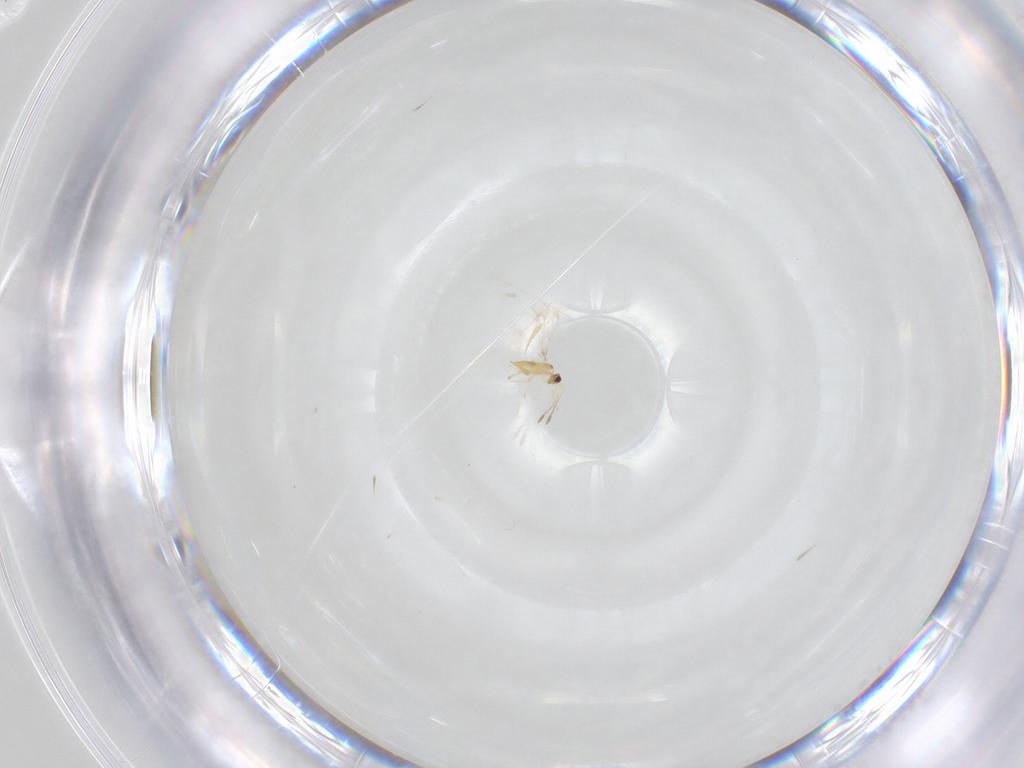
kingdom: Animalia
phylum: Arthropoda
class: Insecta
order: Hymenoptera
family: Mymaridae
